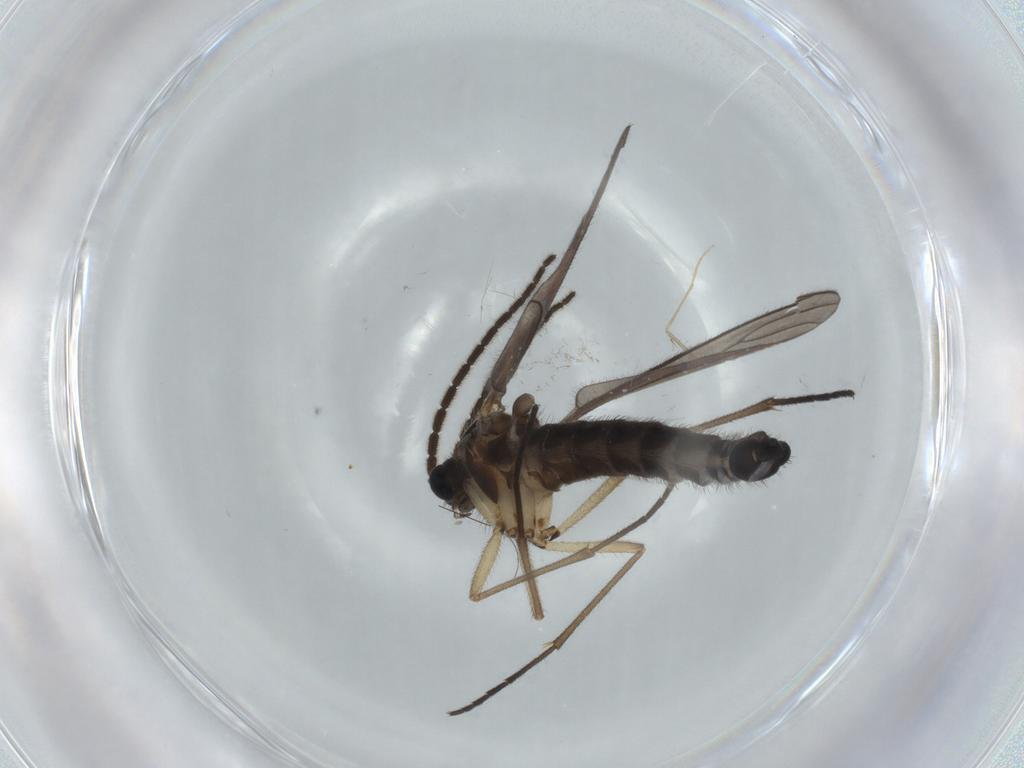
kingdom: Animalia
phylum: Arthropoda
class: Insecta
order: Diptera
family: Sciaridae
